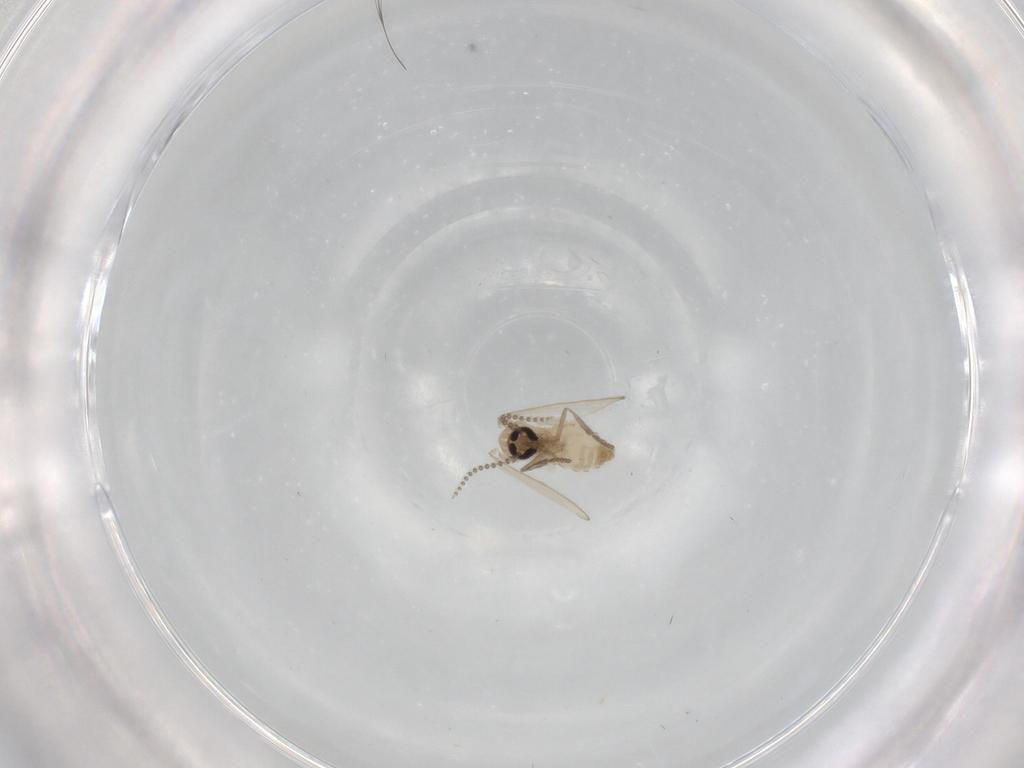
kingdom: Animalia
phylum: Arthropoda
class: Insecta
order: Diptera
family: Psychodidae
